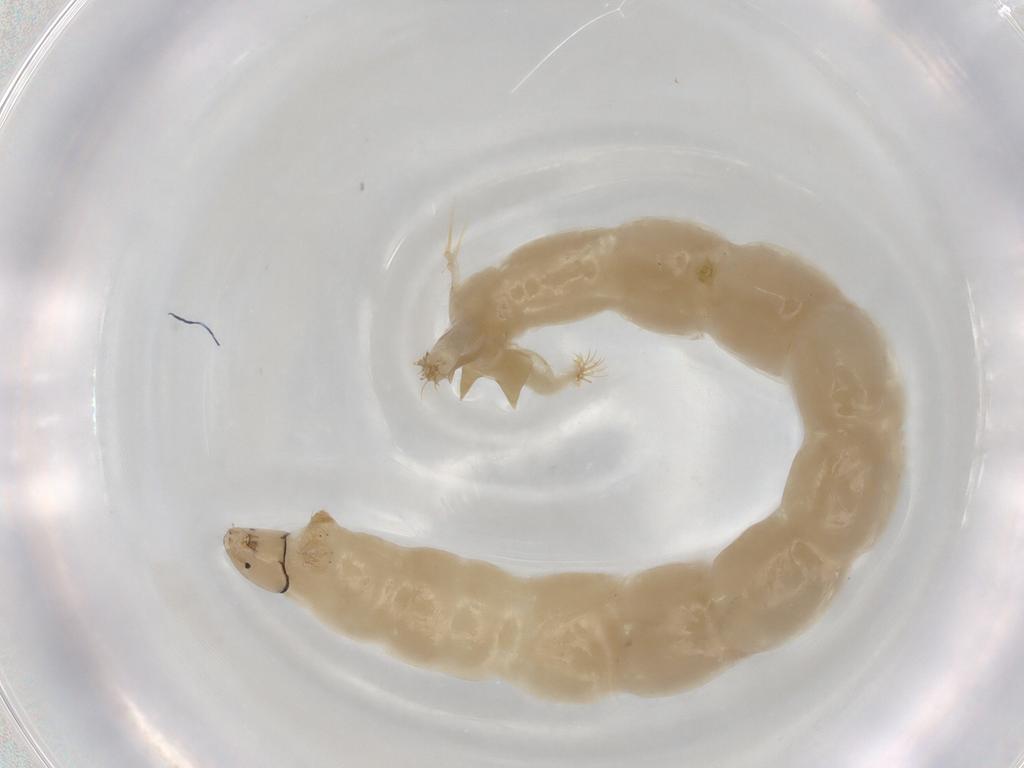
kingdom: Animalia
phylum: Arthropoda
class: Insecta
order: Diptera
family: Chironomidae
